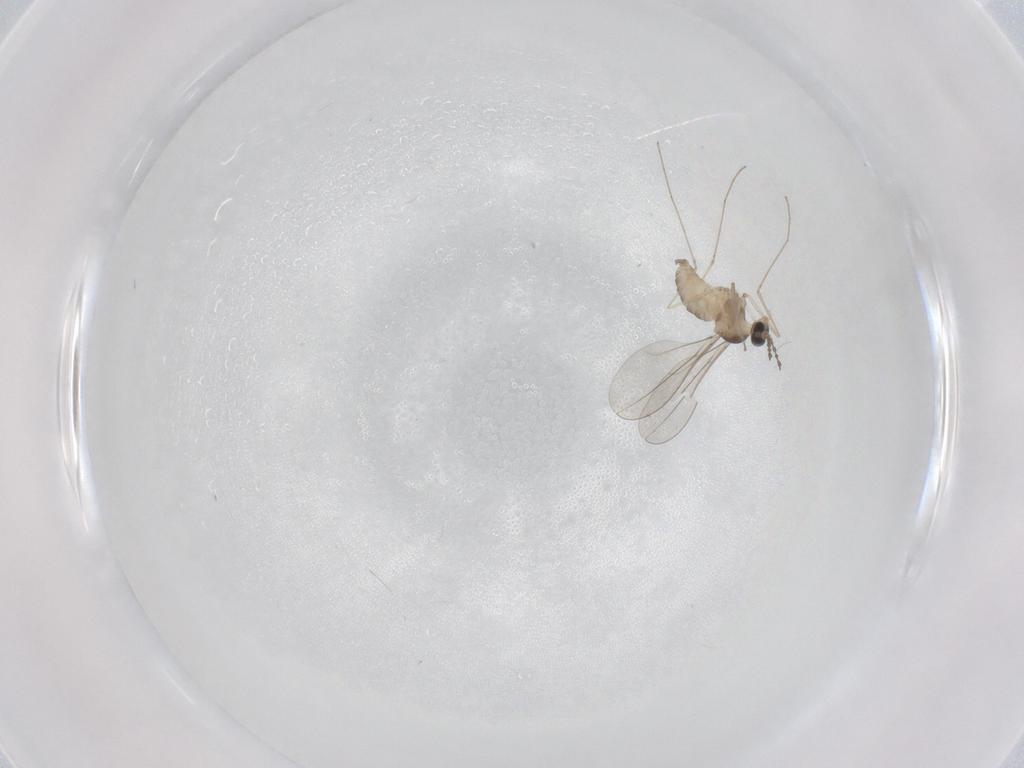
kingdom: Animalia
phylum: Arthropoda
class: Insecta
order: Diptera
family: Cecidomyiidae
